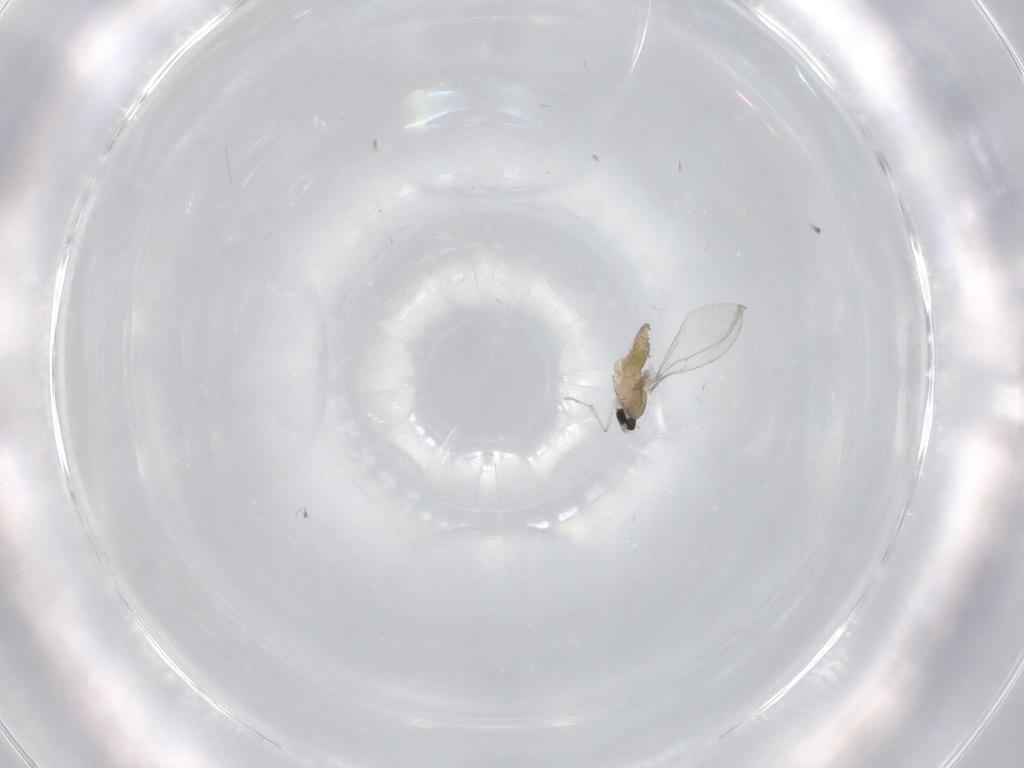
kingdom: Animalia
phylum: Arthropoda
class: Insecta
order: Diptera
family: Cecidomyiidae
